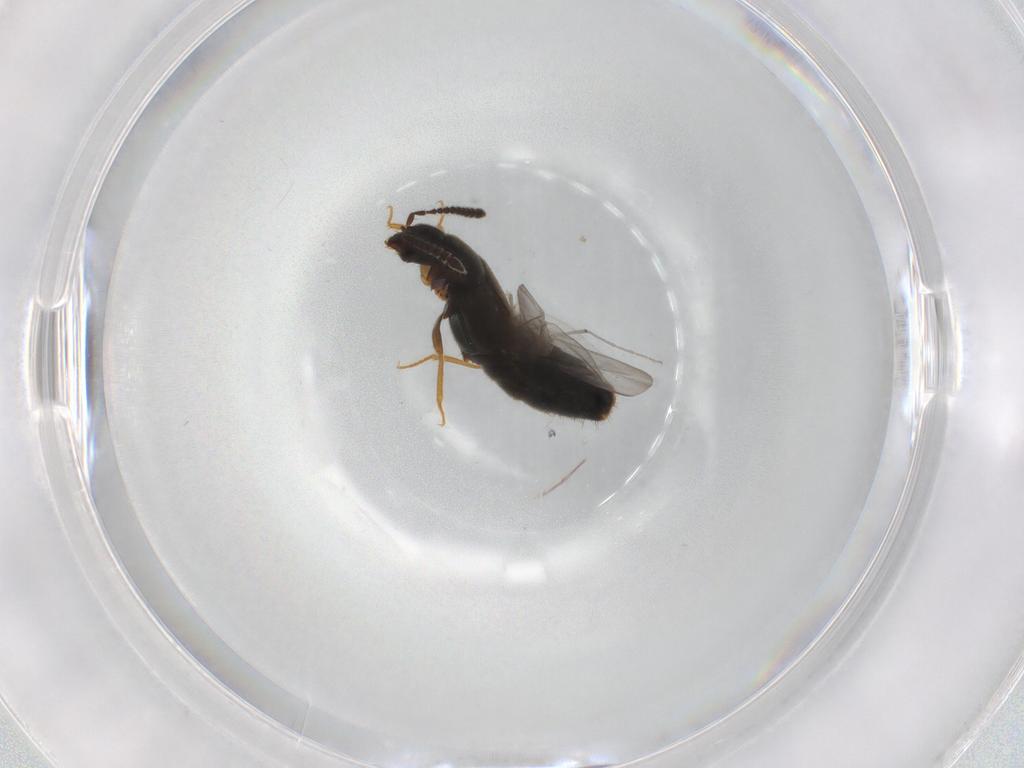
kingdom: Animalia
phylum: Arthropoda
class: Insecta
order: Coleoptera
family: Staphylinidae
